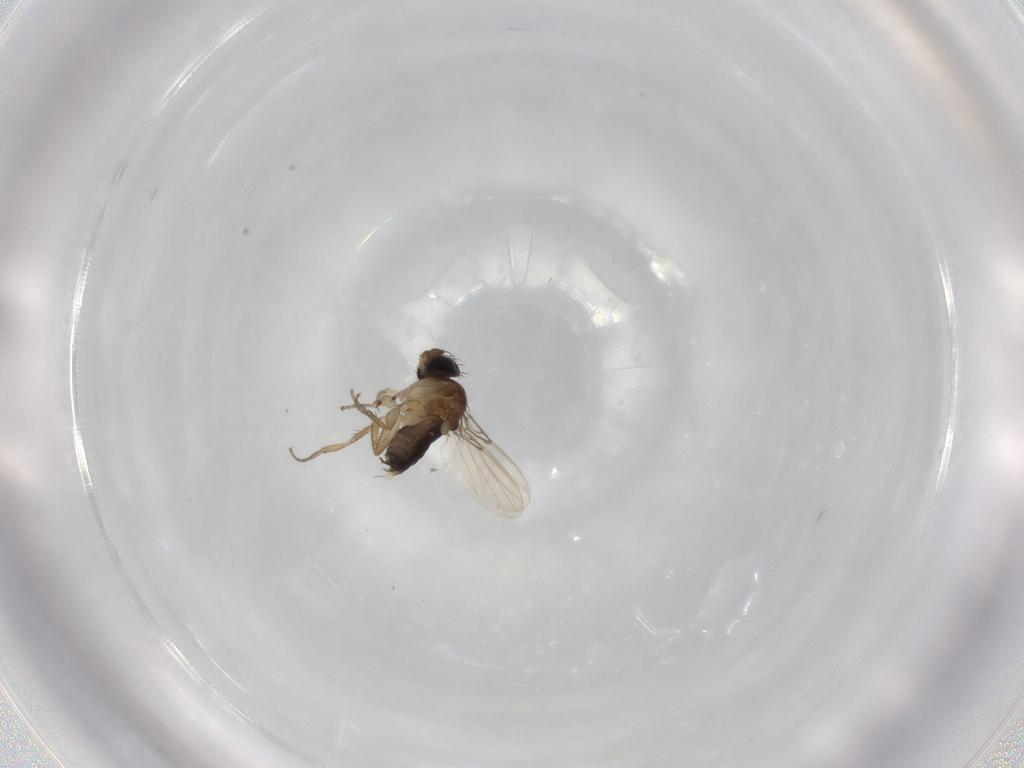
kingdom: Animalia
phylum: Arthropoda
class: Insecta
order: Diptera
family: Phoridae
